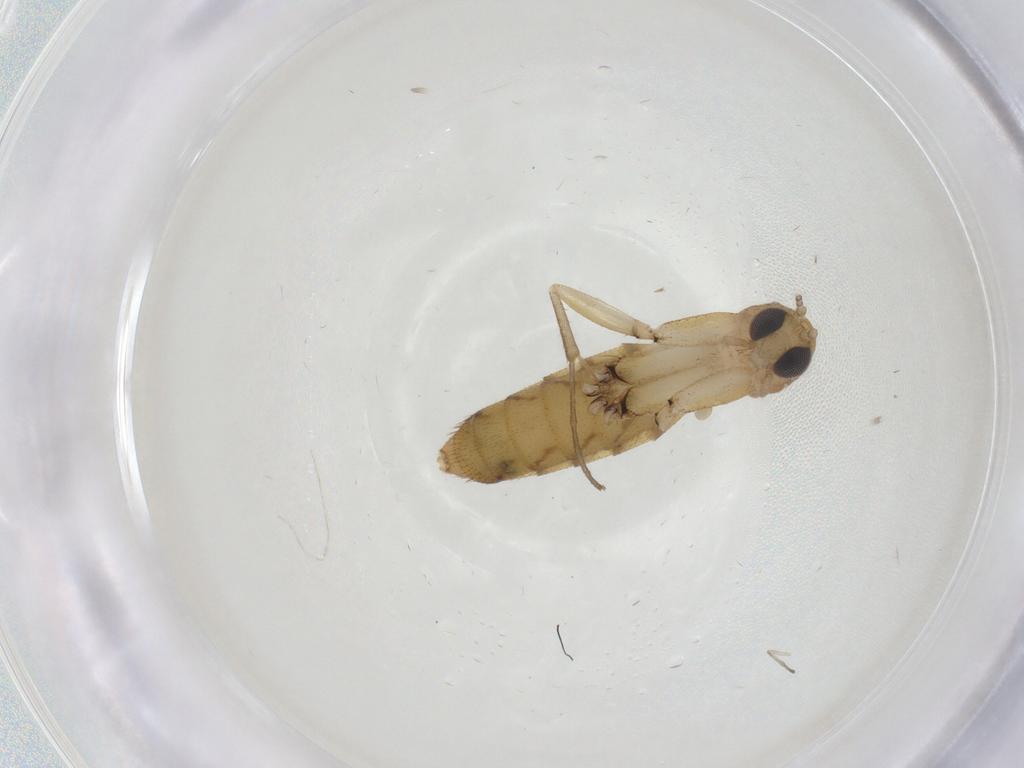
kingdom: Animalia
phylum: Arthropoda
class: Insecta
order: Diptera
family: Mycetophilidae
